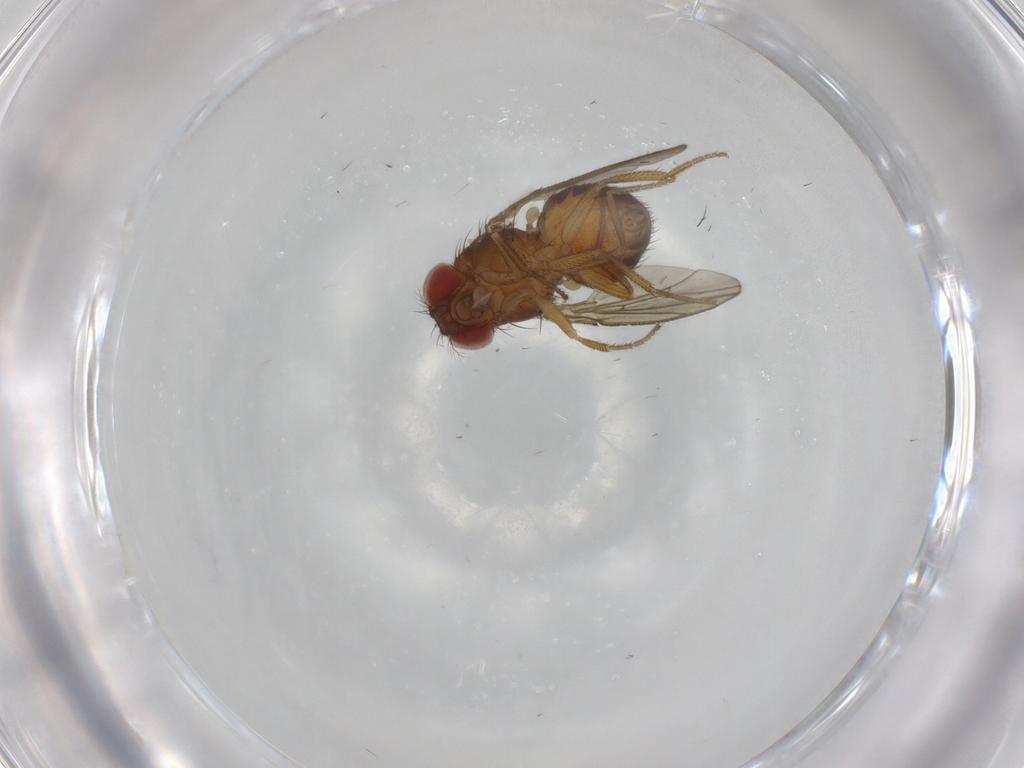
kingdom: Animalia
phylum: Arthropoda
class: Insecta
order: Diptera
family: Drosophilidae
